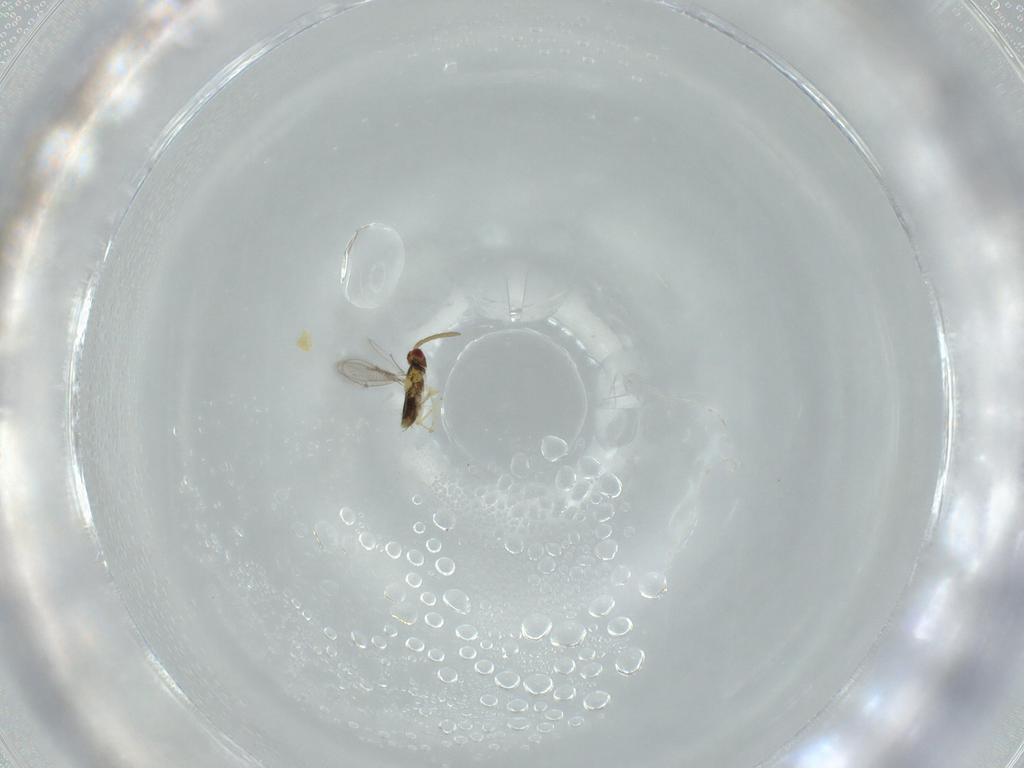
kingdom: Animalia
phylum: Arthropoda
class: Insecta
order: Hymenoptera
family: Aphelinidae
